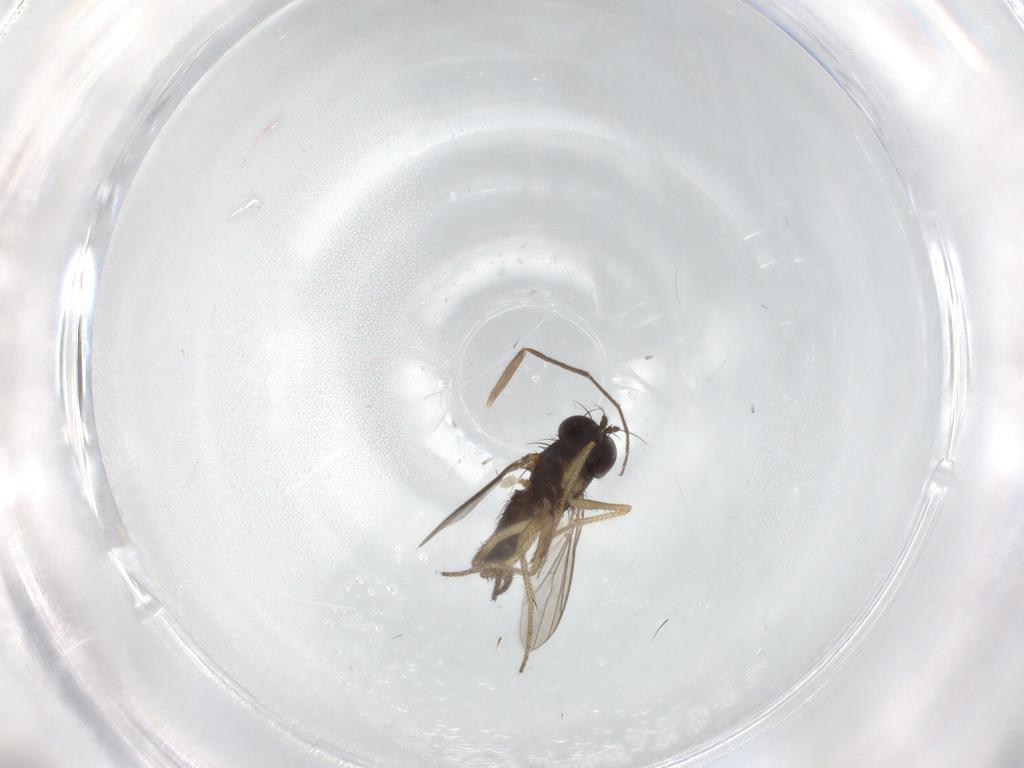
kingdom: Animalia
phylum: Arthropoda
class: Insecta
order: Diptera
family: Chironomidae
